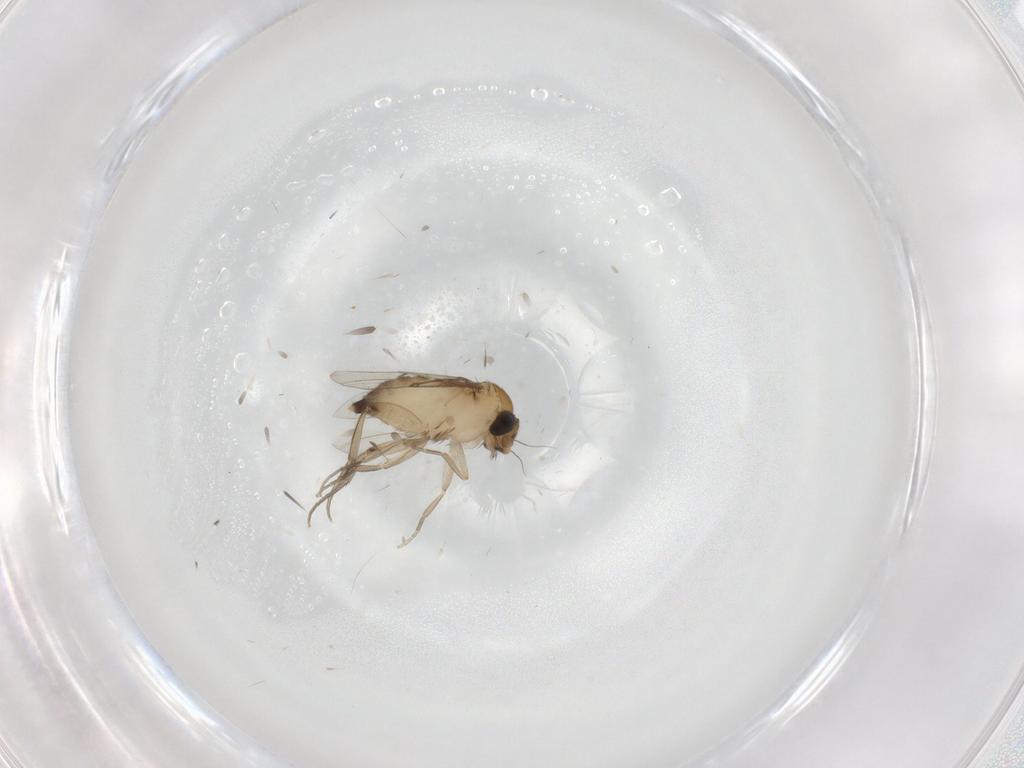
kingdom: Animalia
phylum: Arthropoda
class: Insecta
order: Diptera
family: Phoridae
